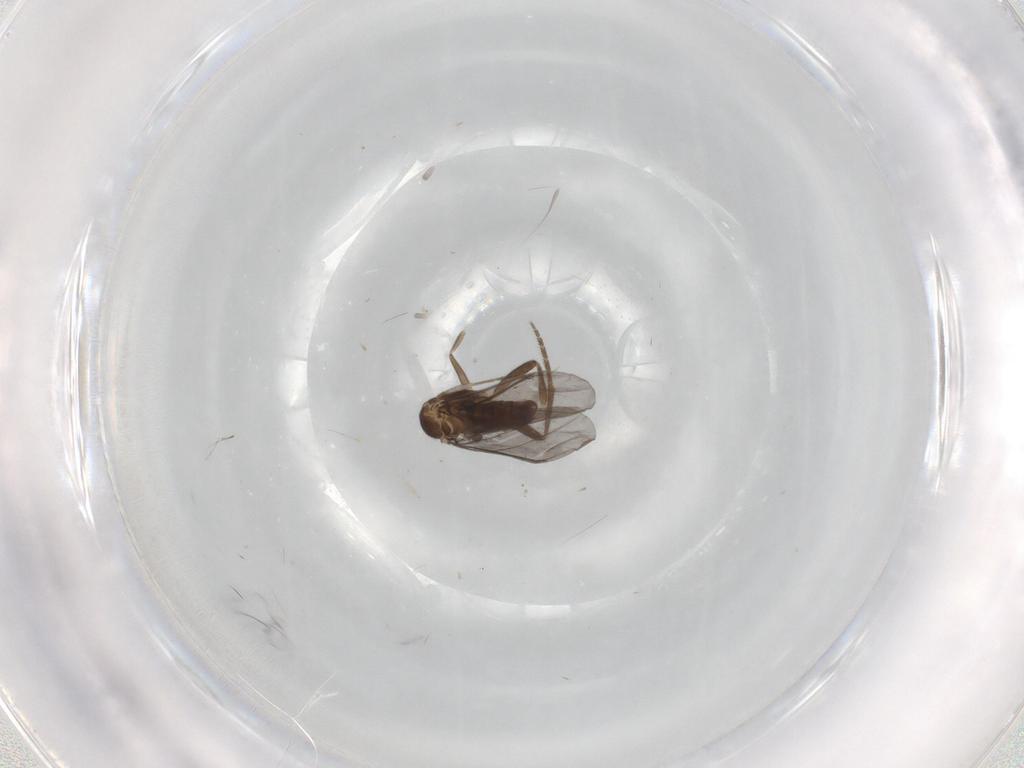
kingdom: Animalia
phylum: Arthropoda
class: Insecta
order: Diptera
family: Phoridae
